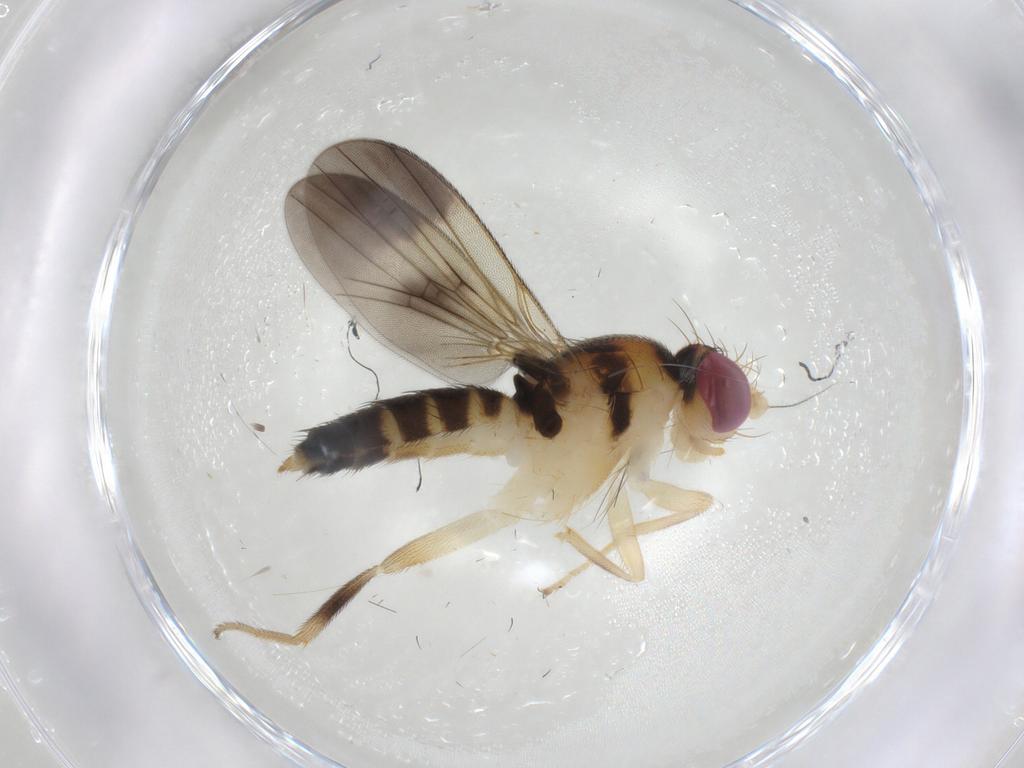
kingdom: Animalia
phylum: Arthropoda
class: Insecta
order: Diptera
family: Clusiidae
